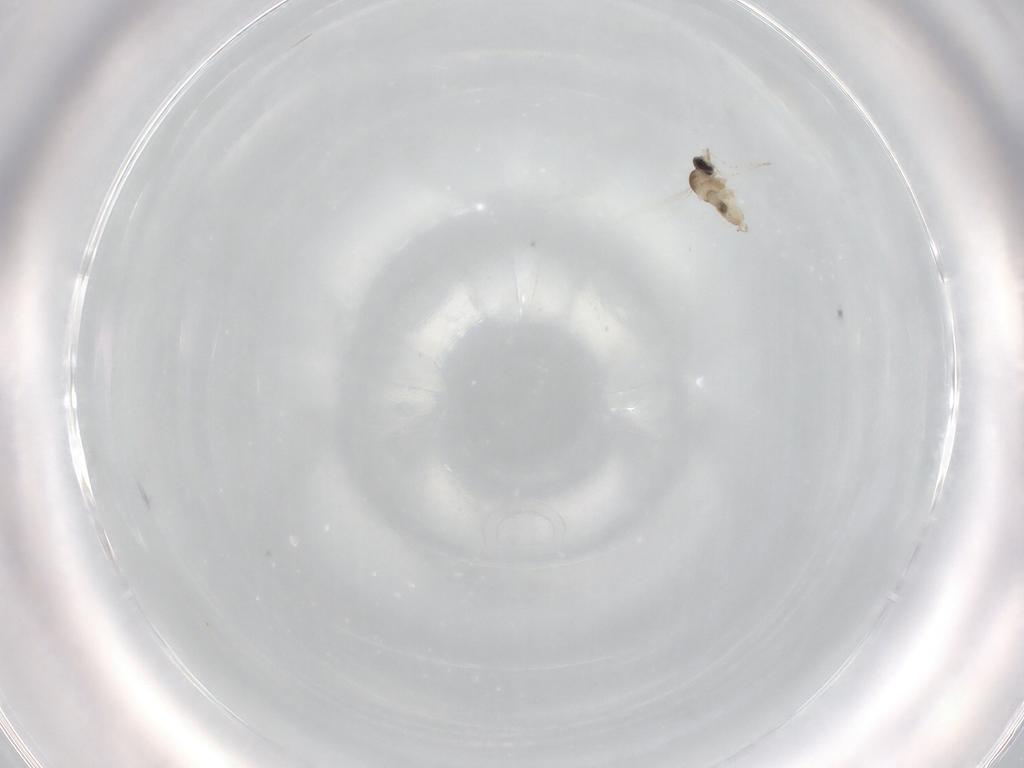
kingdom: Animalia
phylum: Arthropoda
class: Insecta
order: Diptera
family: Cecidomyiidae
